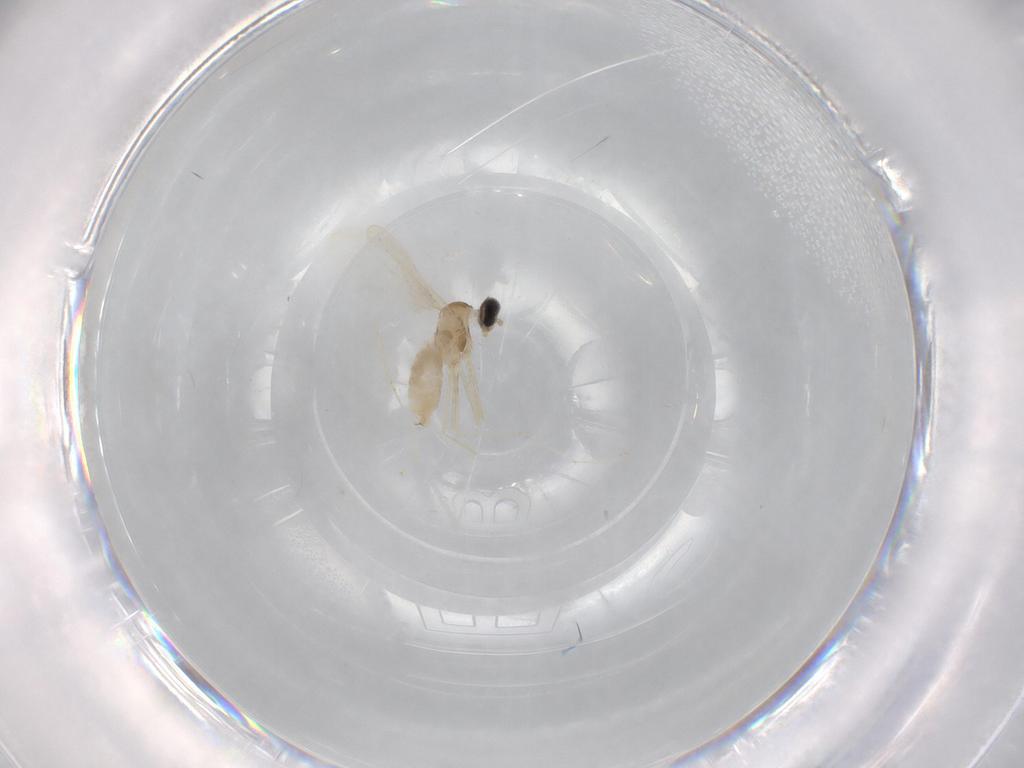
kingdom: Animalia
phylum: Arthropoda
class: Insecta
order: Diptera
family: Cecidomyiidae
